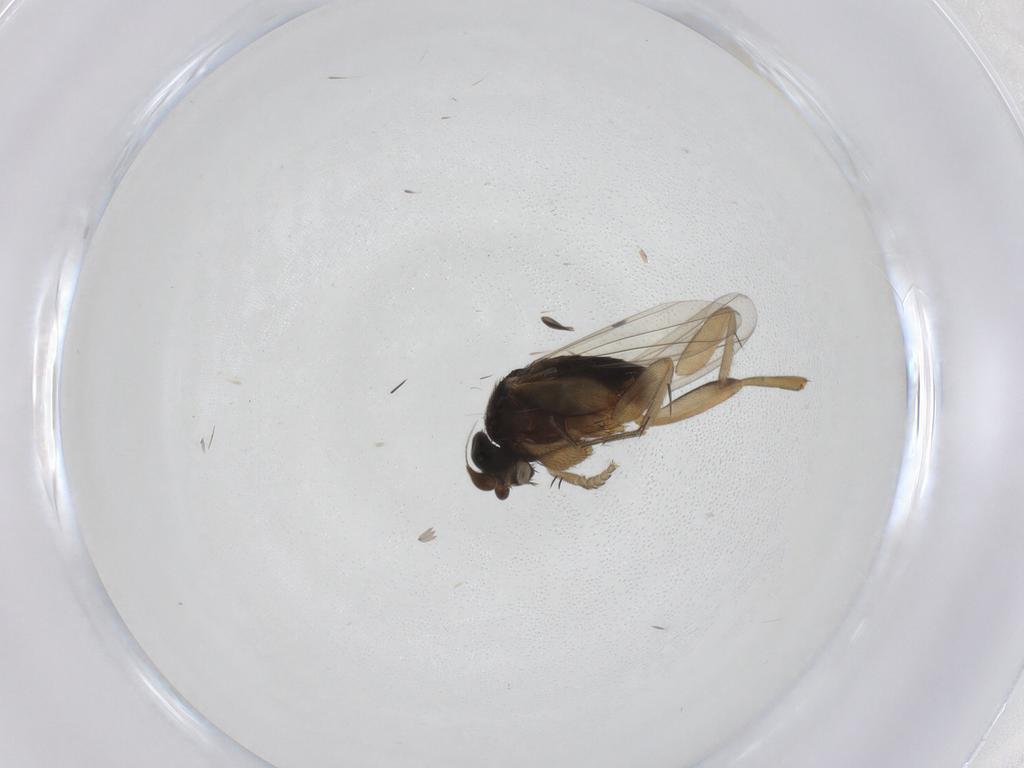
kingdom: Animalia
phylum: Arthropoda
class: Insecta
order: Diptera
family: Phoridae
